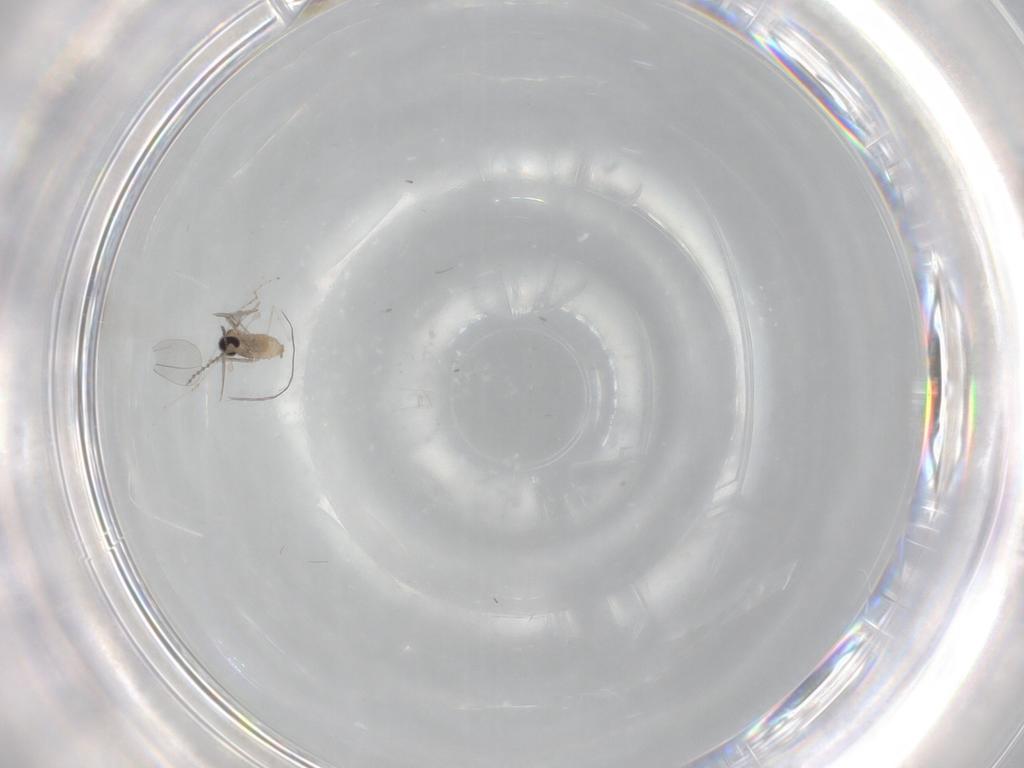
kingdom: Animalia
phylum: Arthropoda
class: Insecta
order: Diptera
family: Cecidomyiidae
